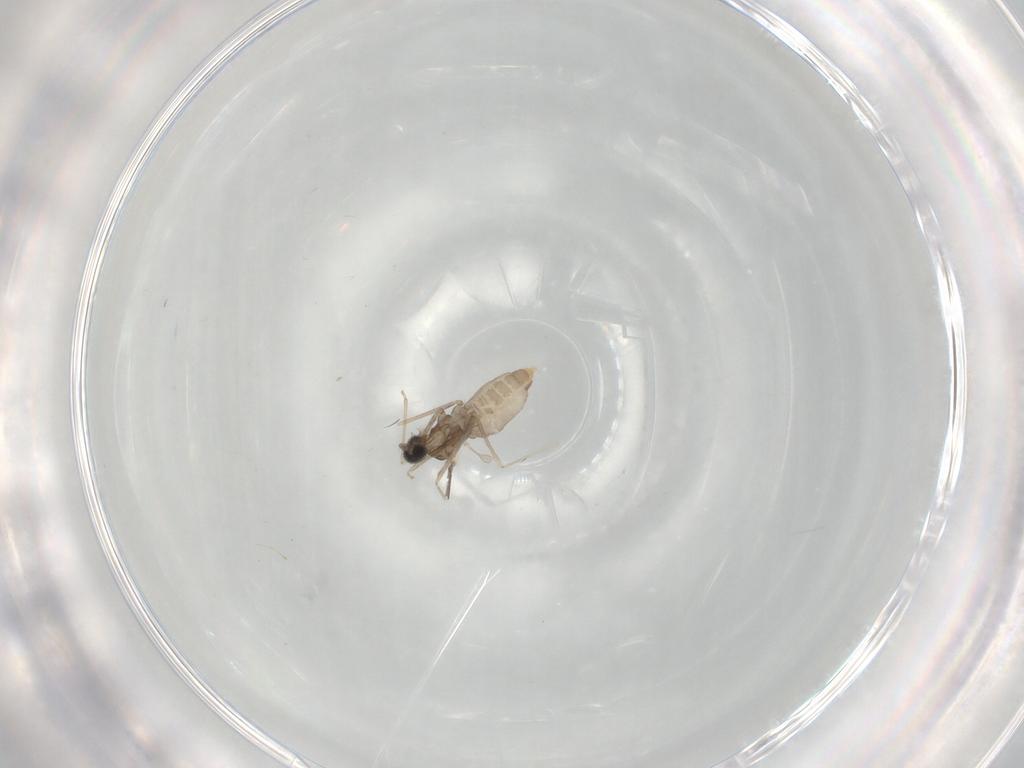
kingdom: Animalia
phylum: Arthropoda
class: Insecta
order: Diptera
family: Cecidomyiidae
